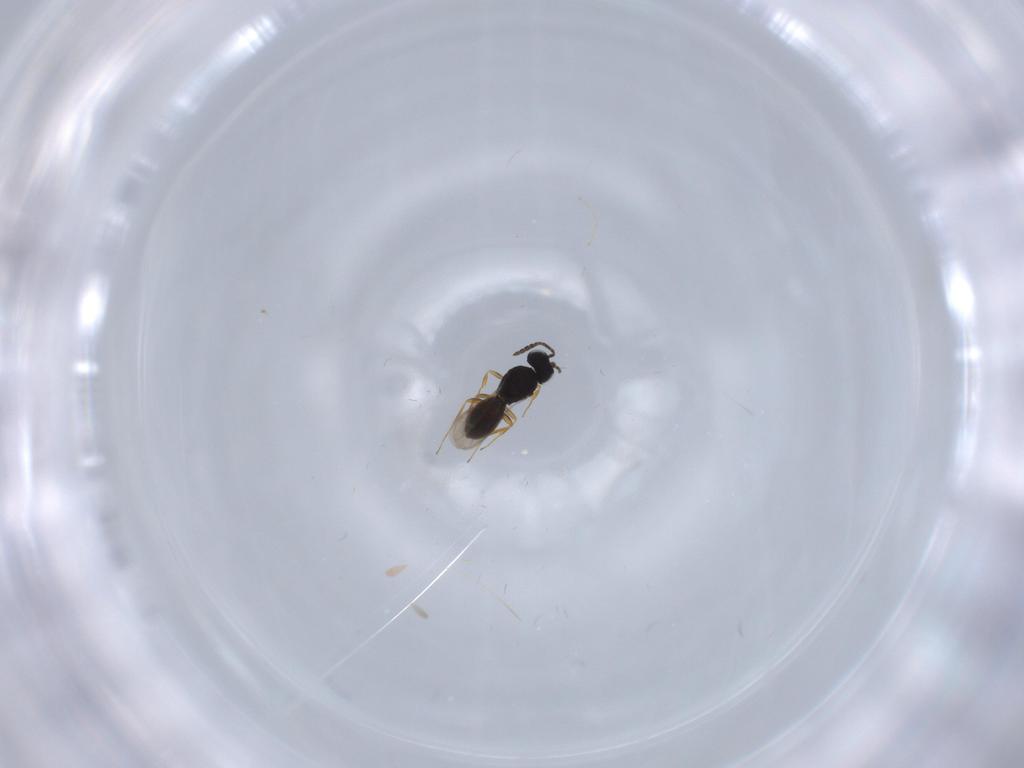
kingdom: Animalia
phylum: Arthropoda
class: Insecta
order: Hymenoptera
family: Scelionidae
